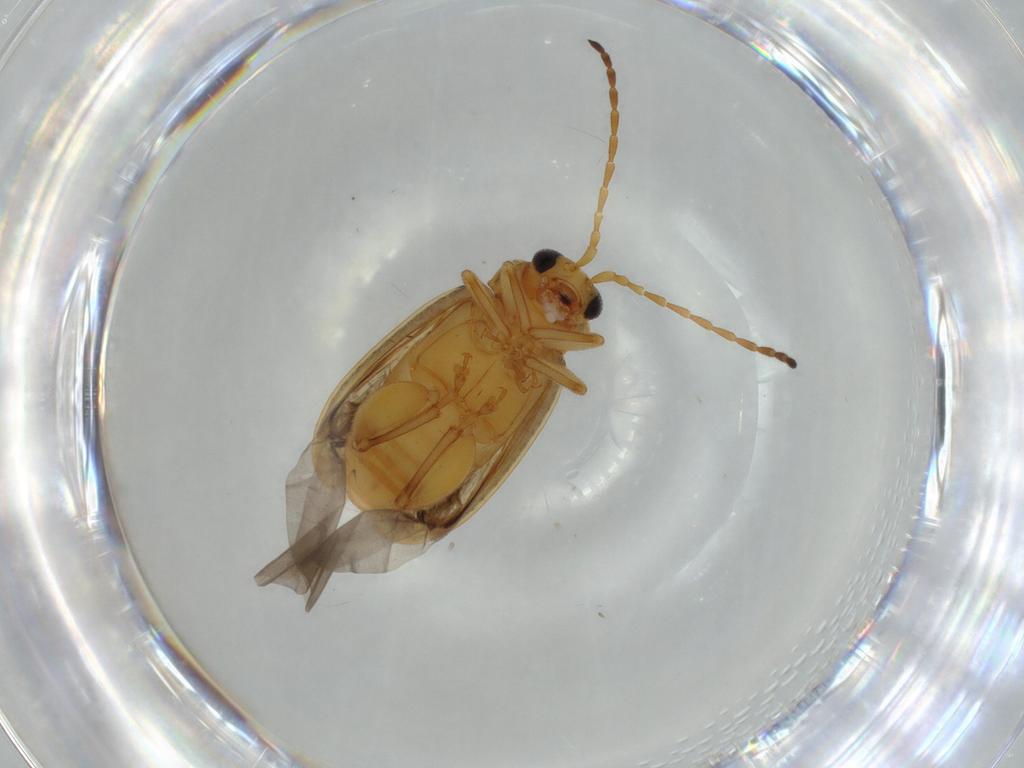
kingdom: Animalia
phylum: Arthropoda
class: Insecta
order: Coleoptera
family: Chrysomelidae
